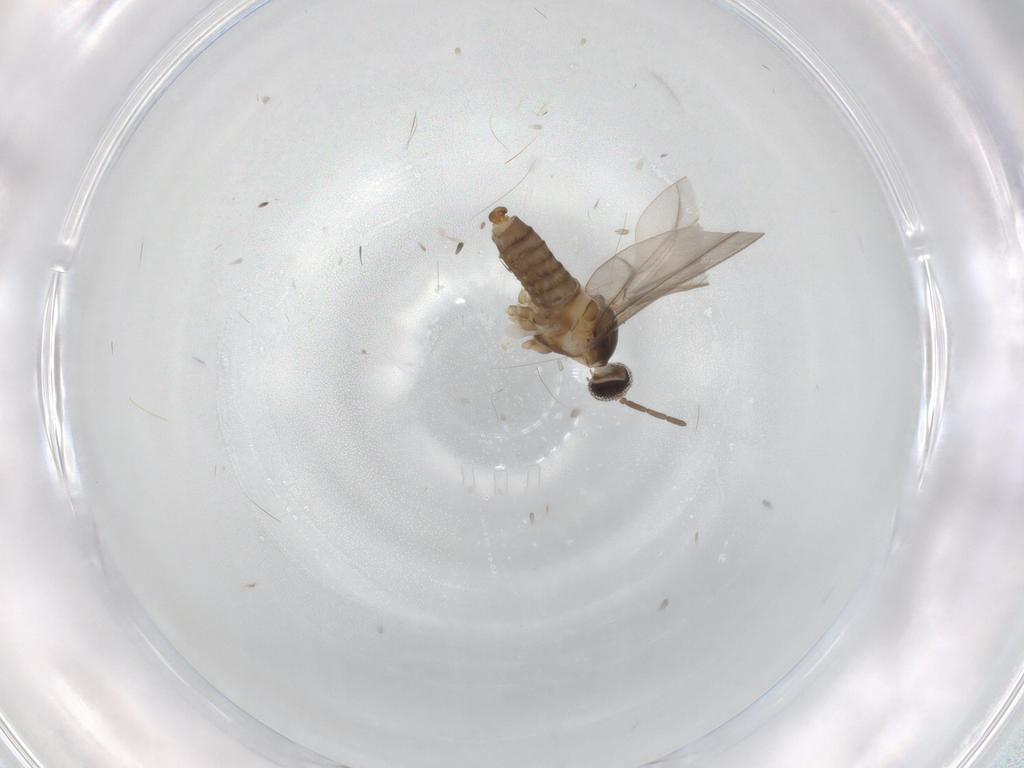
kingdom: Animalia
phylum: Arthropoda
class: Insecta
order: Diptera
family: Cecidomyiidae
